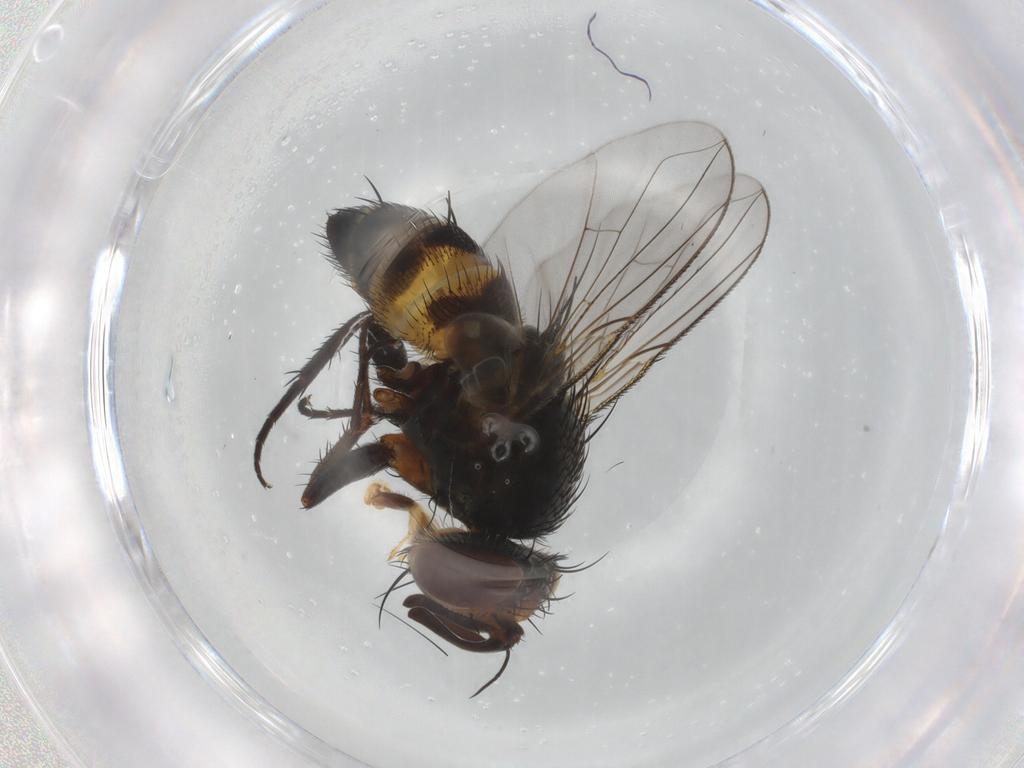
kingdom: Animalia
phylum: Arthropoda
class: Insecta
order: Diptera
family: Tachinidae
